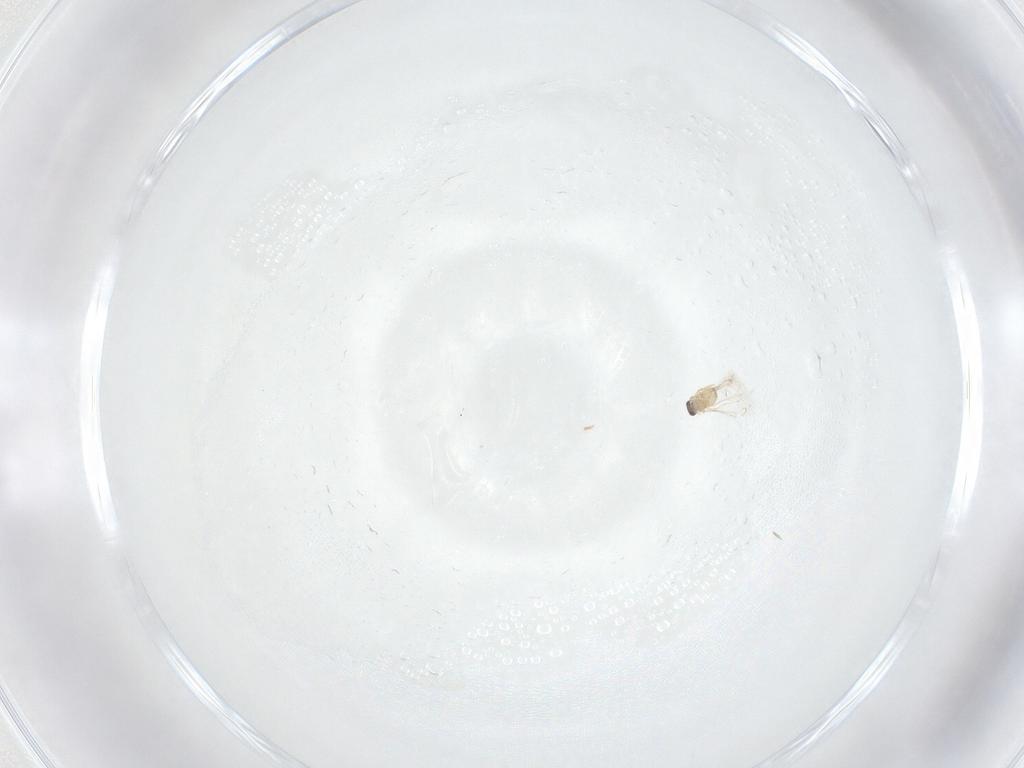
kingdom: Animalia
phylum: Arthropoda
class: Insecta
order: Hymenoptera
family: Mymaridae
